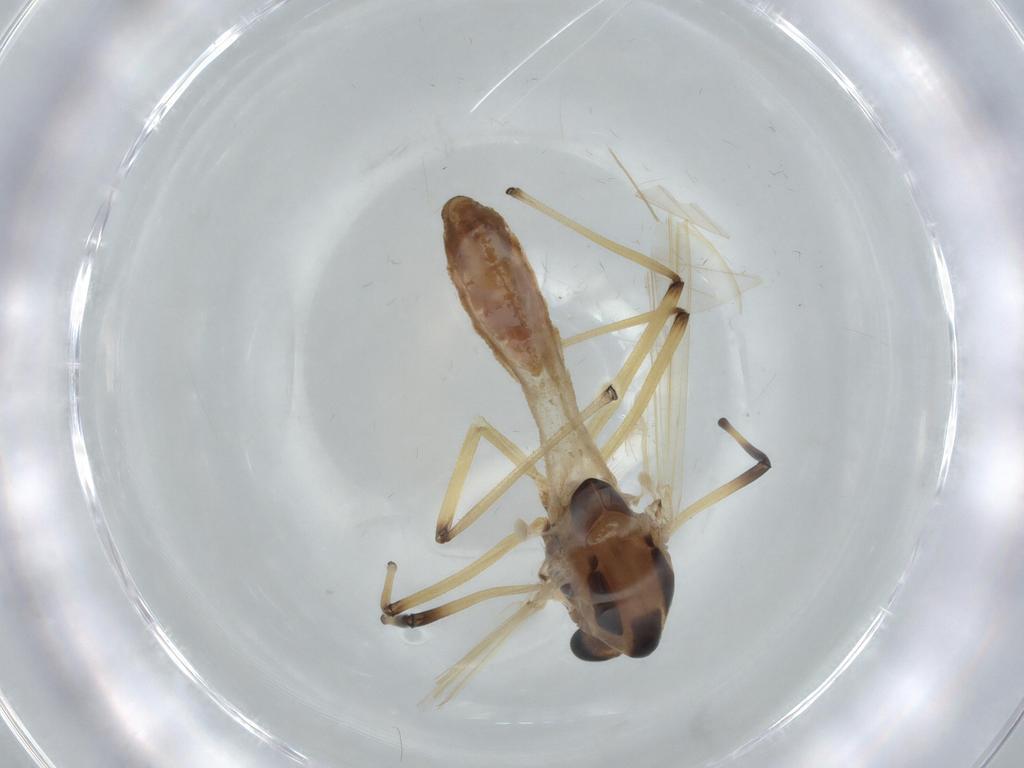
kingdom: Animalia
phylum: Arthropoda
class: Insecta
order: Diptera
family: Chironomidae
